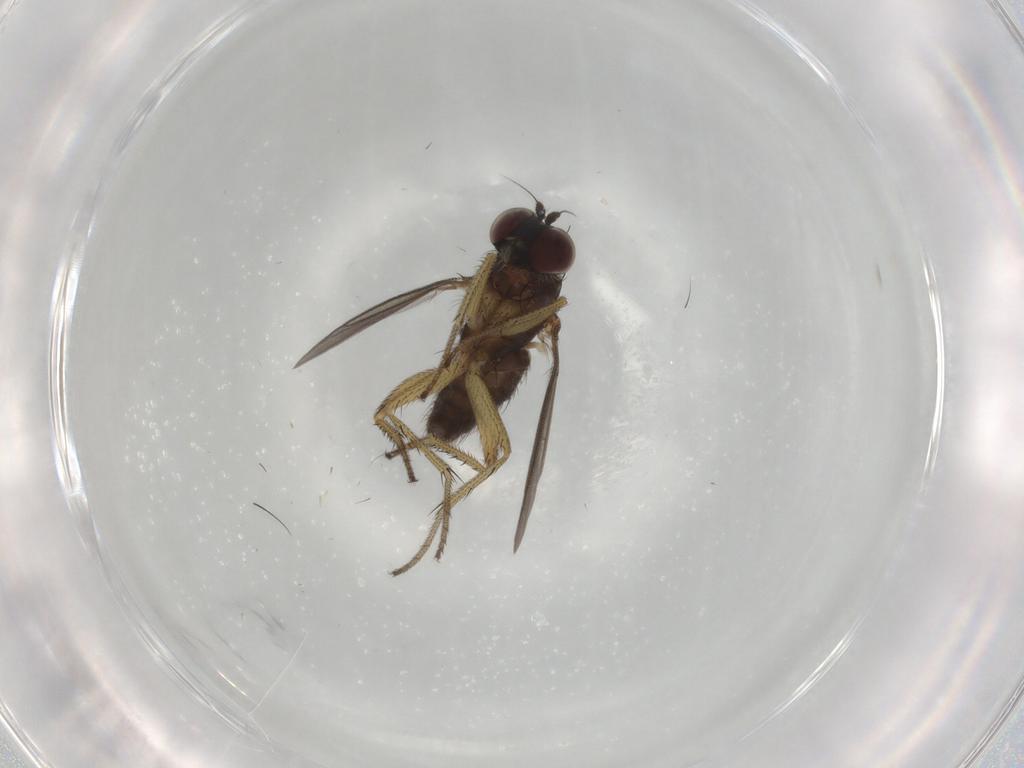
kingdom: Animalia
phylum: Arthropoda
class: Insecta
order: Diptera
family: Dolichopodidae
